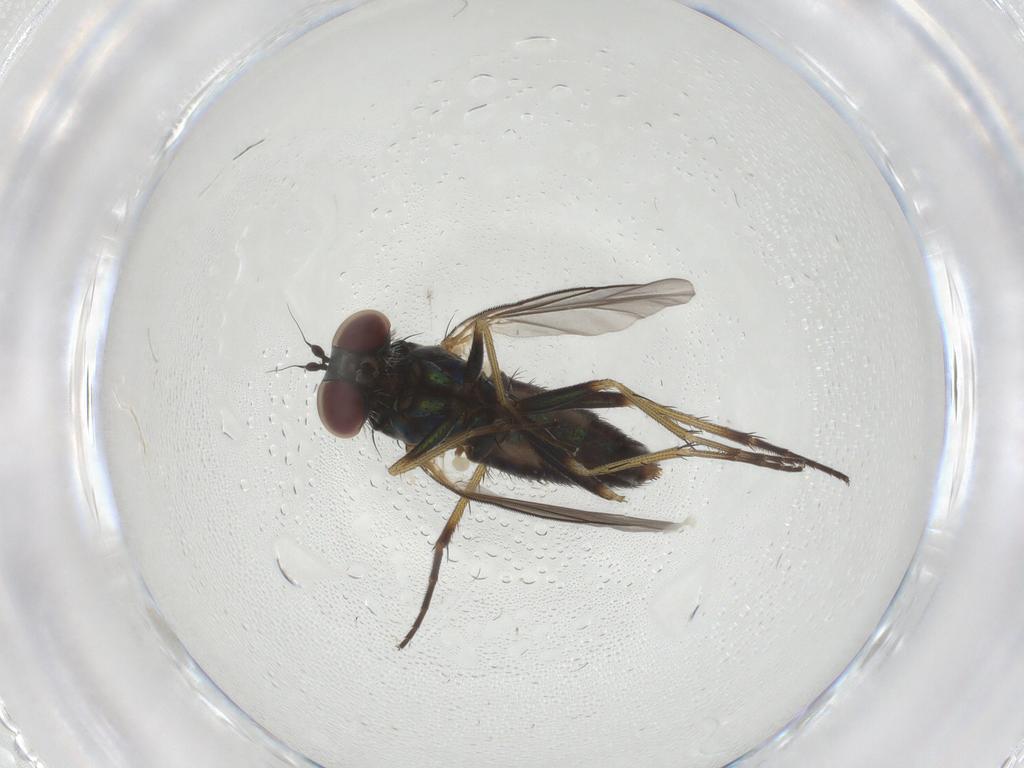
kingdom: Animalia
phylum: Arthropoda
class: Insecta
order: Diptera
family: Dolichopodidae
